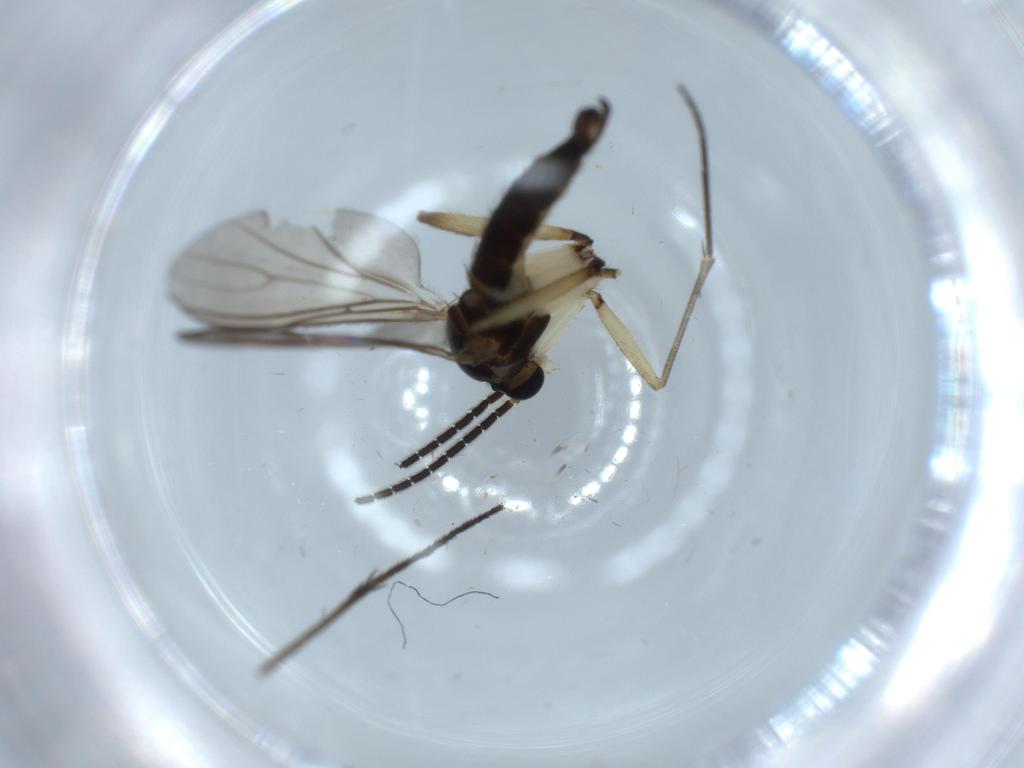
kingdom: Animalia
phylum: Arthropoda
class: Insecta
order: Diptera
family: Sciaridae
